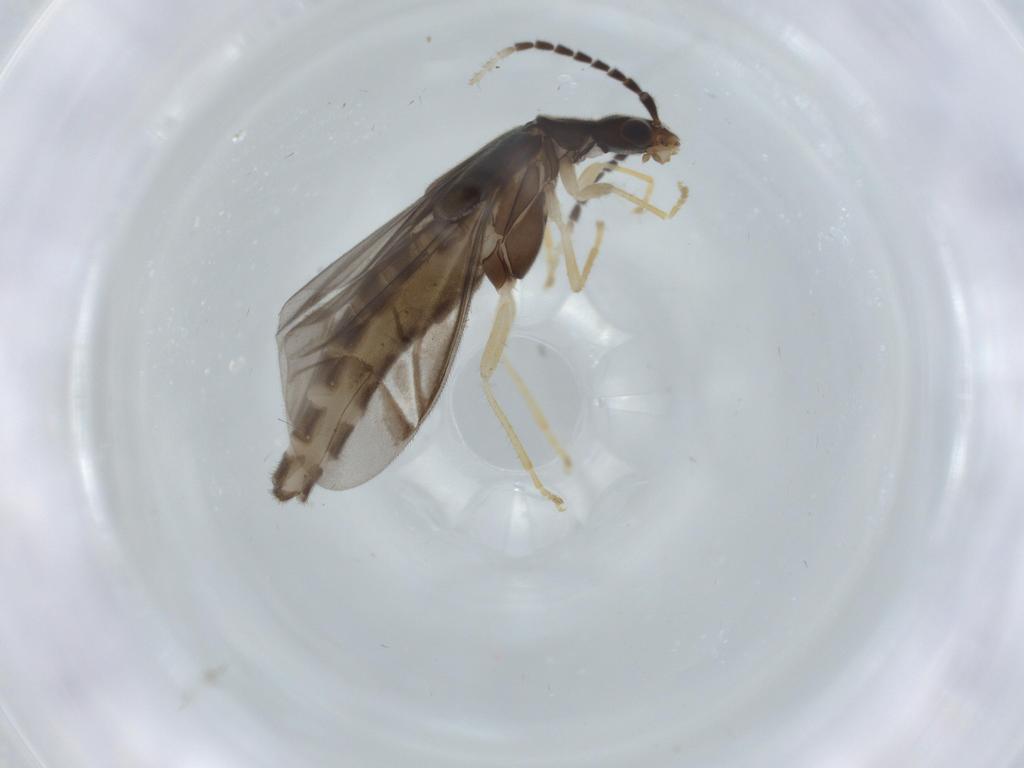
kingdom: Animalia
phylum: Arthropoda
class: Insecta
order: Coleoptera
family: Cantharidae
